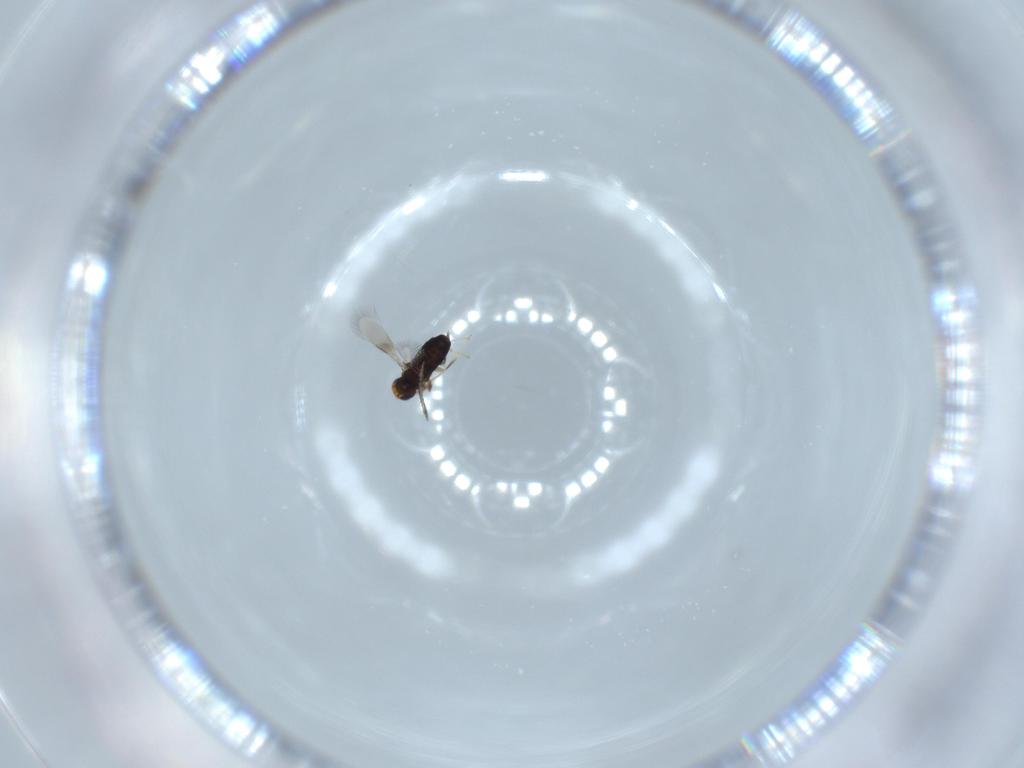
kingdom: Animalia
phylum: Arthropoda
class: Insecta
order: Hymenoptera
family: Signiphoridae
